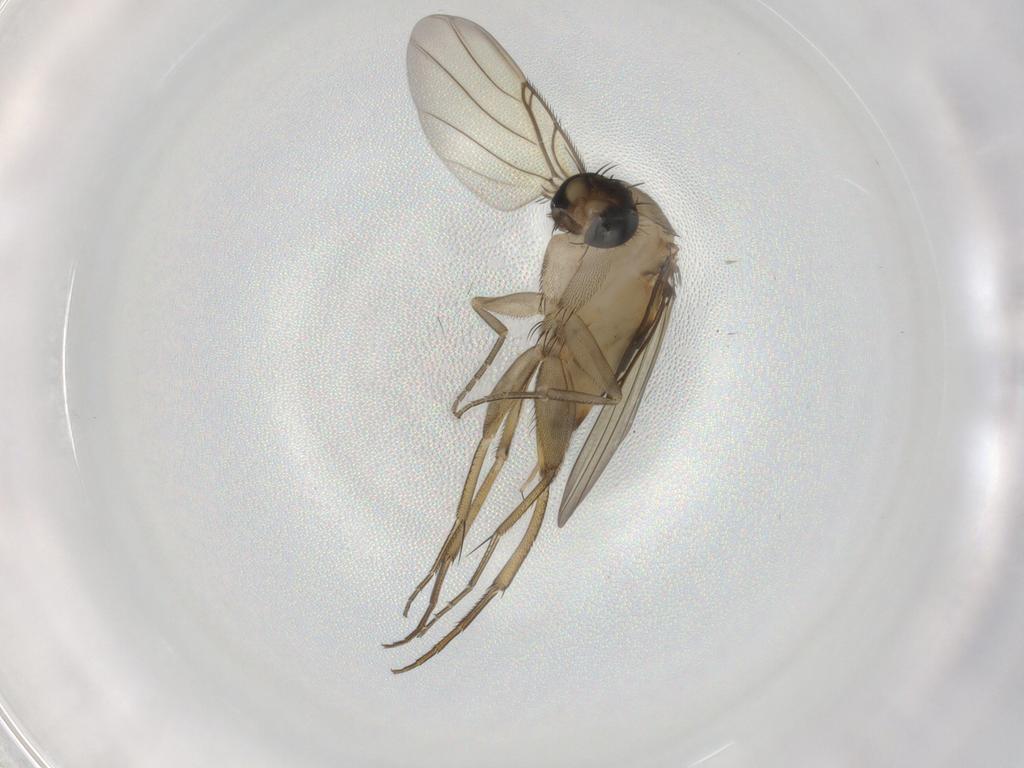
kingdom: Animalia
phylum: Arthropoda
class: Insecta
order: Diptera
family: Phoridae
